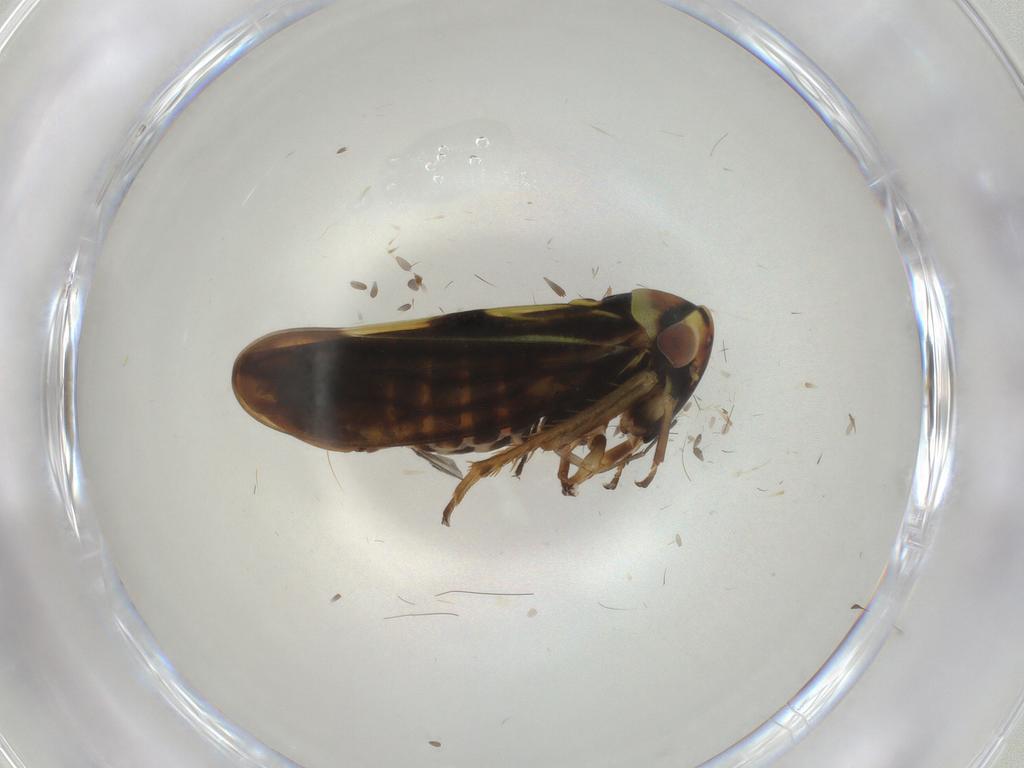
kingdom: Animalia
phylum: Arthropoda
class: Insecta
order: Hemiptera
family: Cicadellidae
